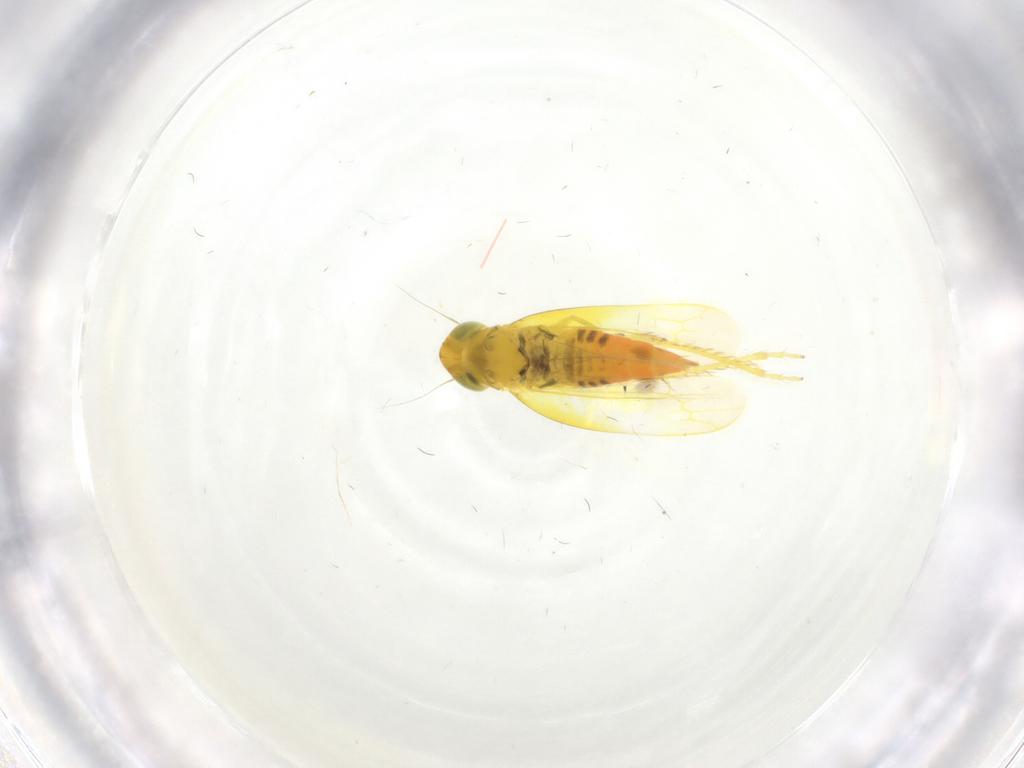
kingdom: Animalia
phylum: Arthropoda
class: Insecta
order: Hemiptera
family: Cicadellidae
